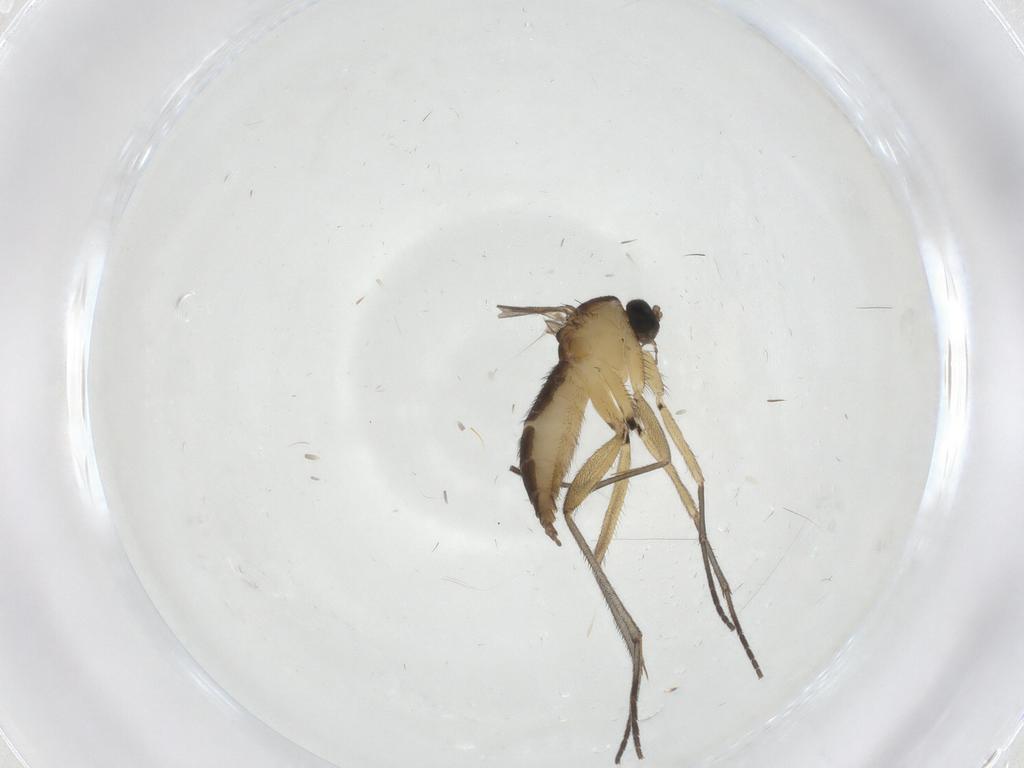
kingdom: Animalia
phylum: Arthropoda
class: Insecta
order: Diptera
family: Sciaridae
